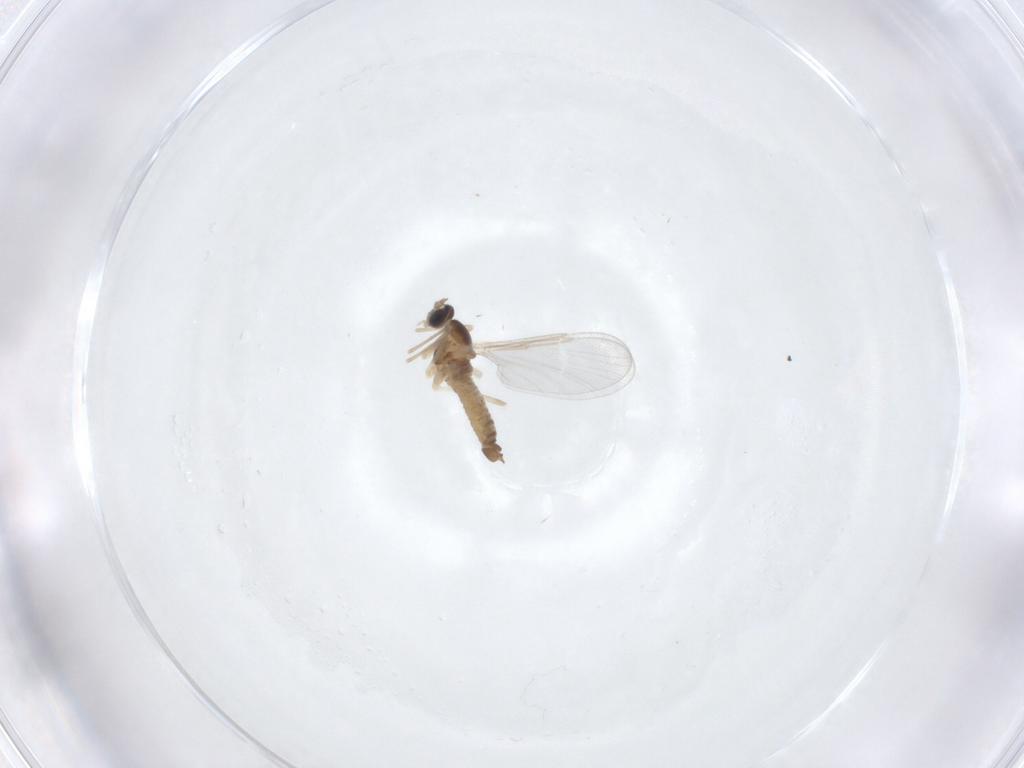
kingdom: Animalia
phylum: Arthropoda
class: Insecta
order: Diptera
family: Cecidomyiidae
